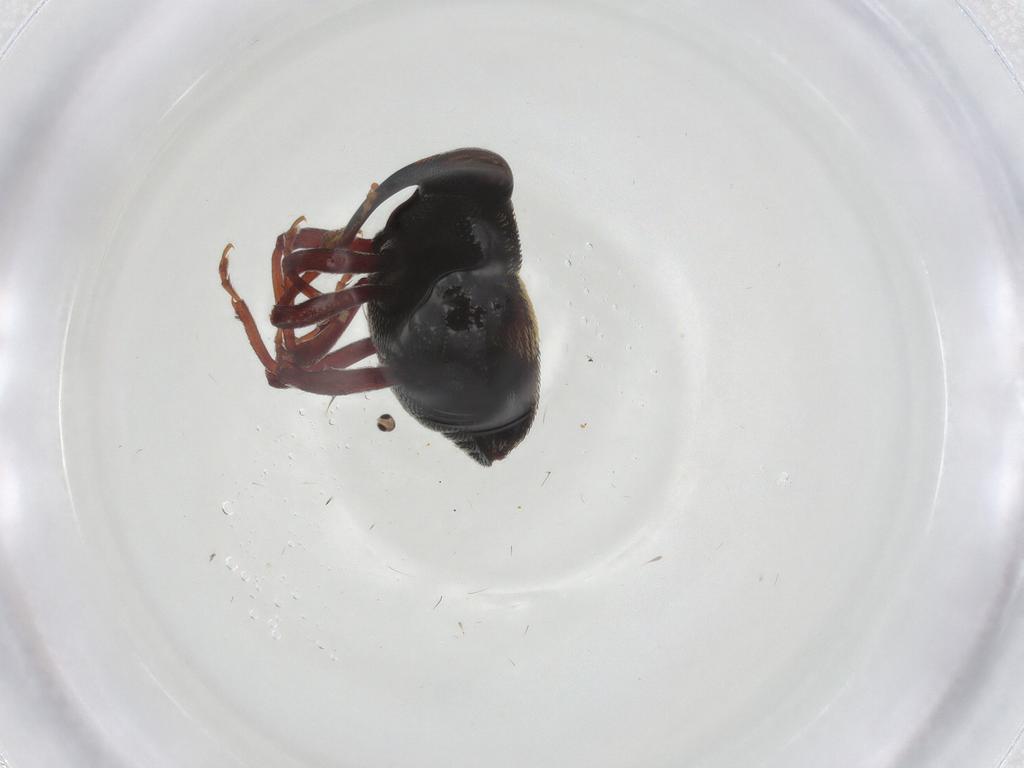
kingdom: Animalia
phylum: Arthropoda
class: Insecta
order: Coleoptera
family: Curculionidae
